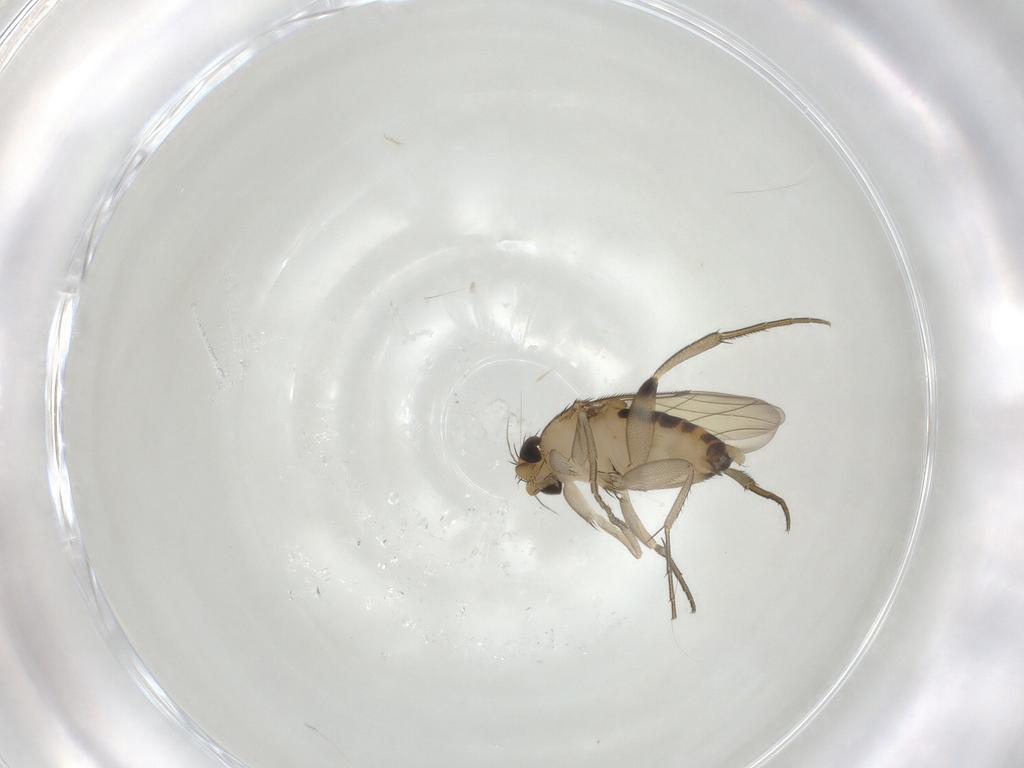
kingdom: Animalia
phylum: Arthropoda
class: Insecta
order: Diptera
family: Phoridae
